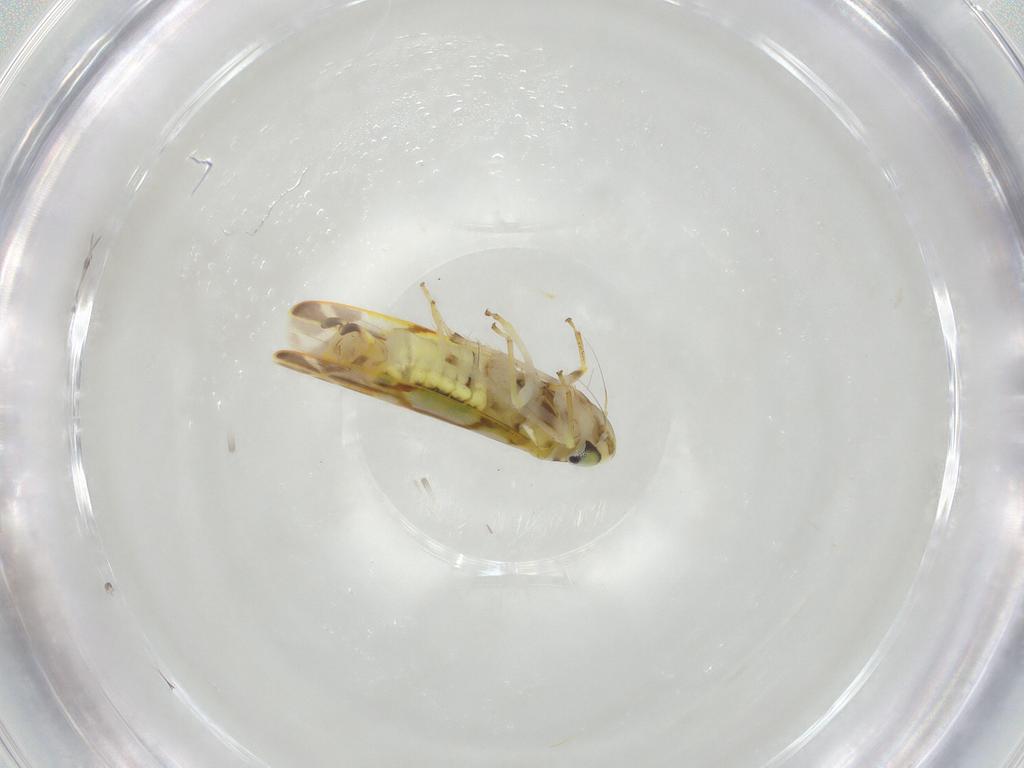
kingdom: Animalia
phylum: Arthropoda
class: Insecta
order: Hemiptera
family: Cicadellidae
